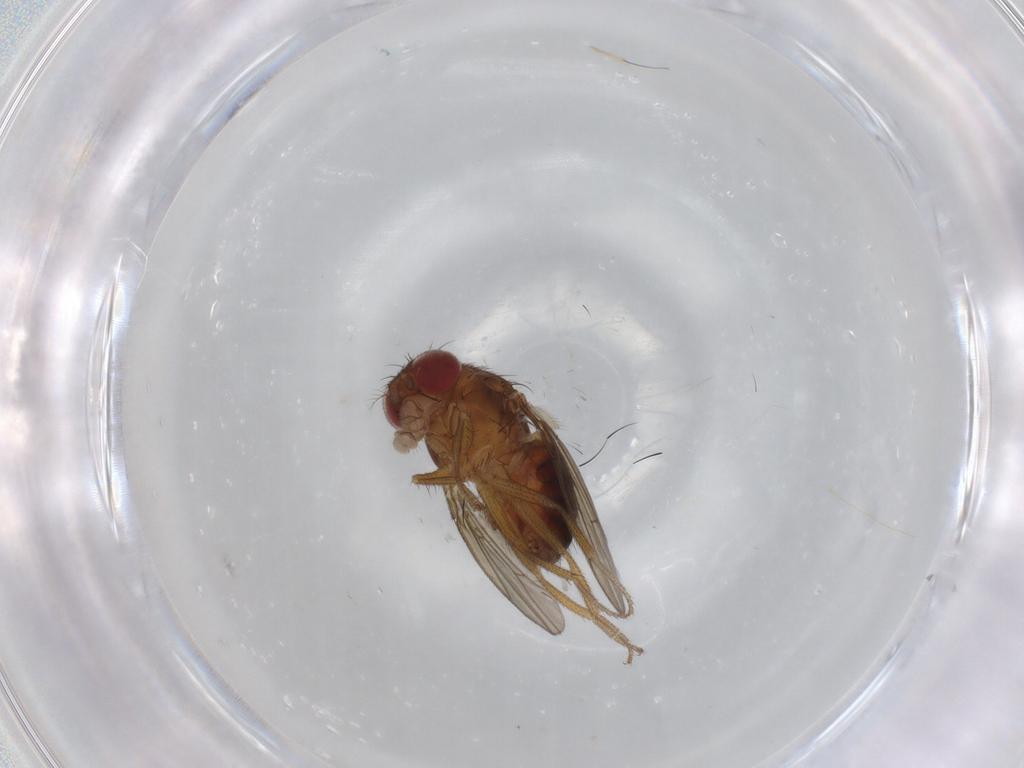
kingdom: Animalia
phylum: Arthropoda
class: Insecta
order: Diptera
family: Drosophilidae
